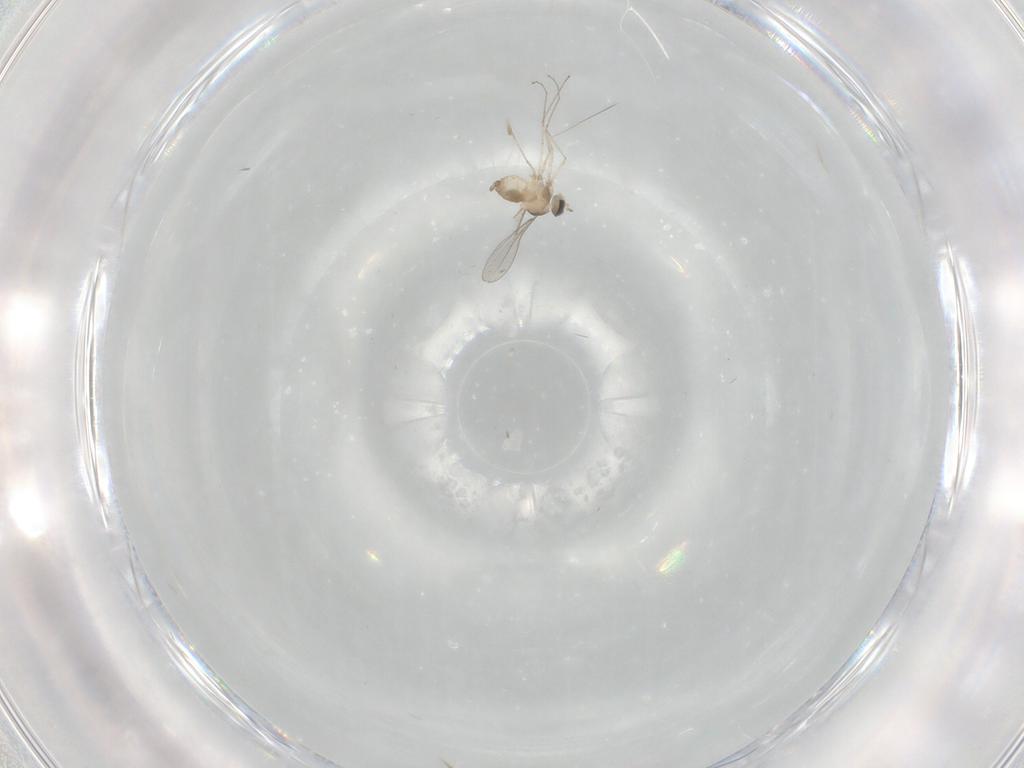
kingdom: Animalia
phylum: Arthropoda
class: Insecta
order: Diptera
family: Cecidomyiidae
